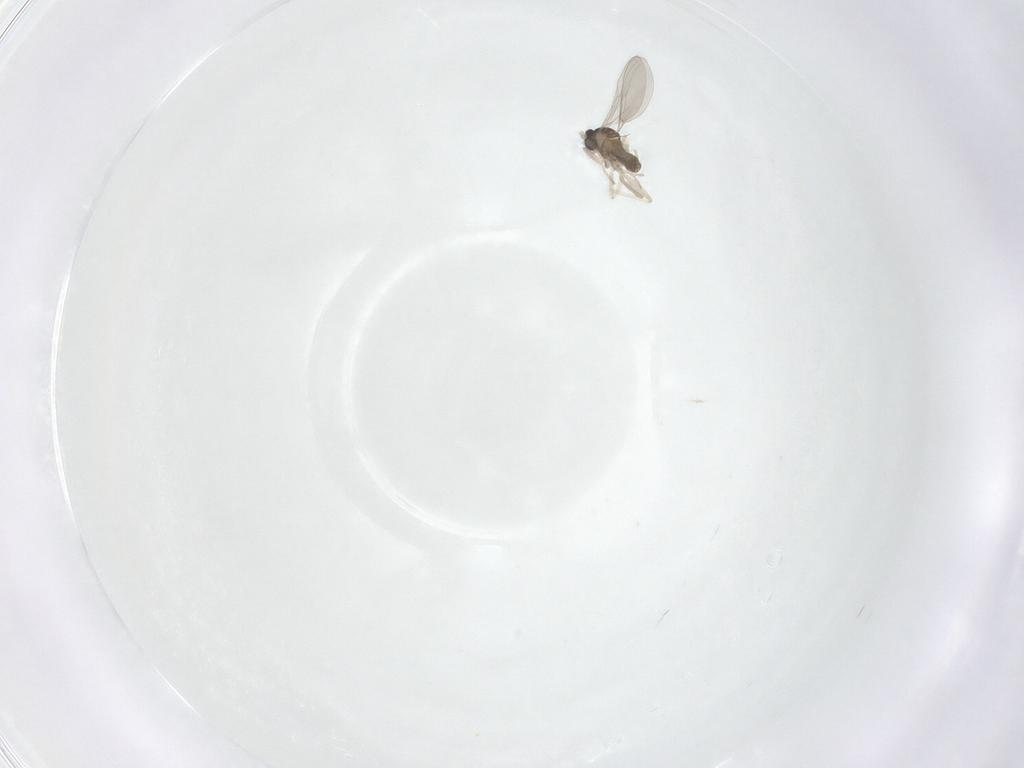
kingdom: Animalia
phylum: Arthropoda
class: Insecta
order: Diptera
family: Cecidomyiidae
